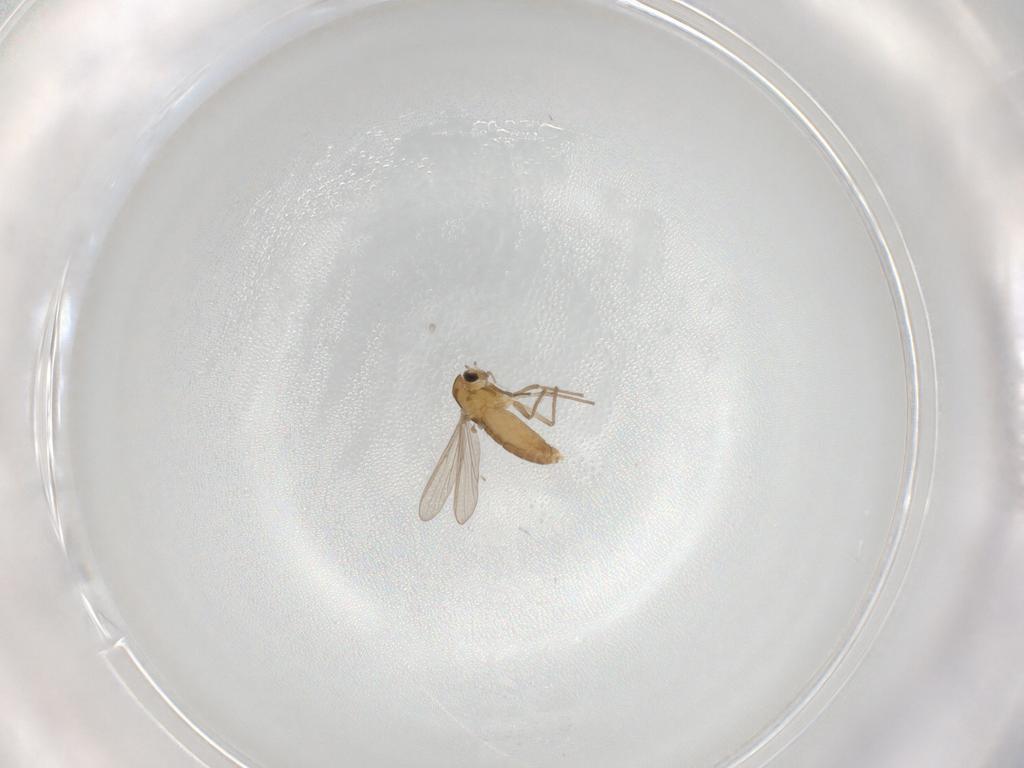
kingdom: Animalia
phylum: Arthropoda
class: Insecta
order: Diptera
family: Chironomidae
